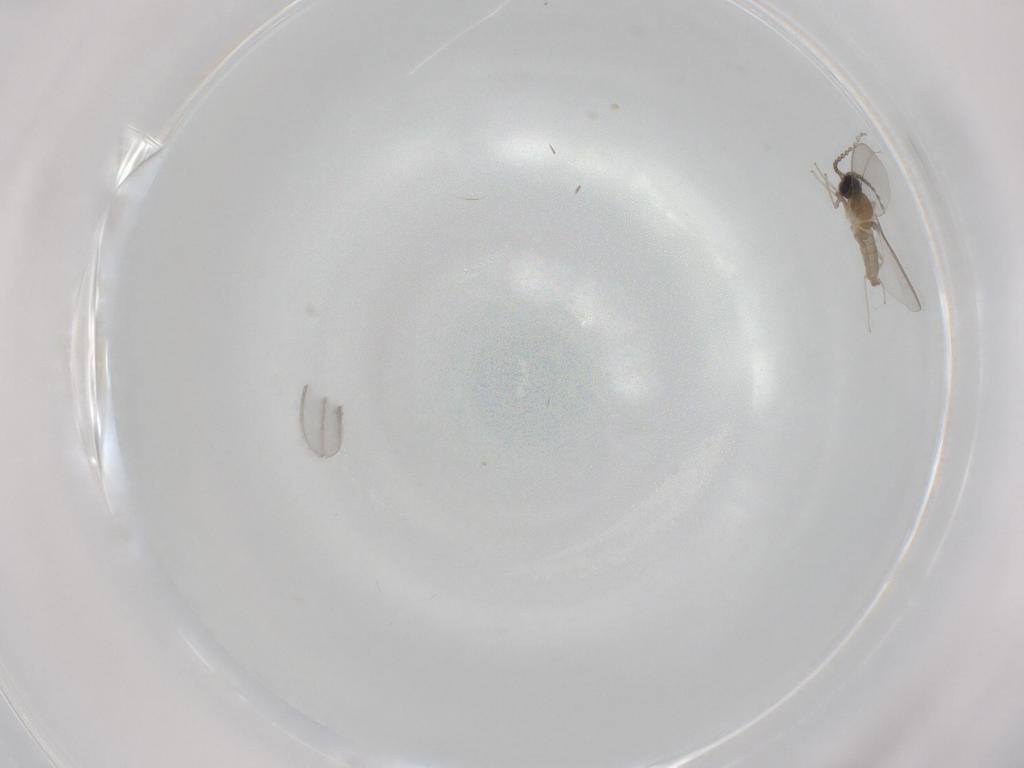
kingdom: Animalia
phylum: Arthropoda
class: Insecta
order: Diptera
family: Cecidomyiidae
